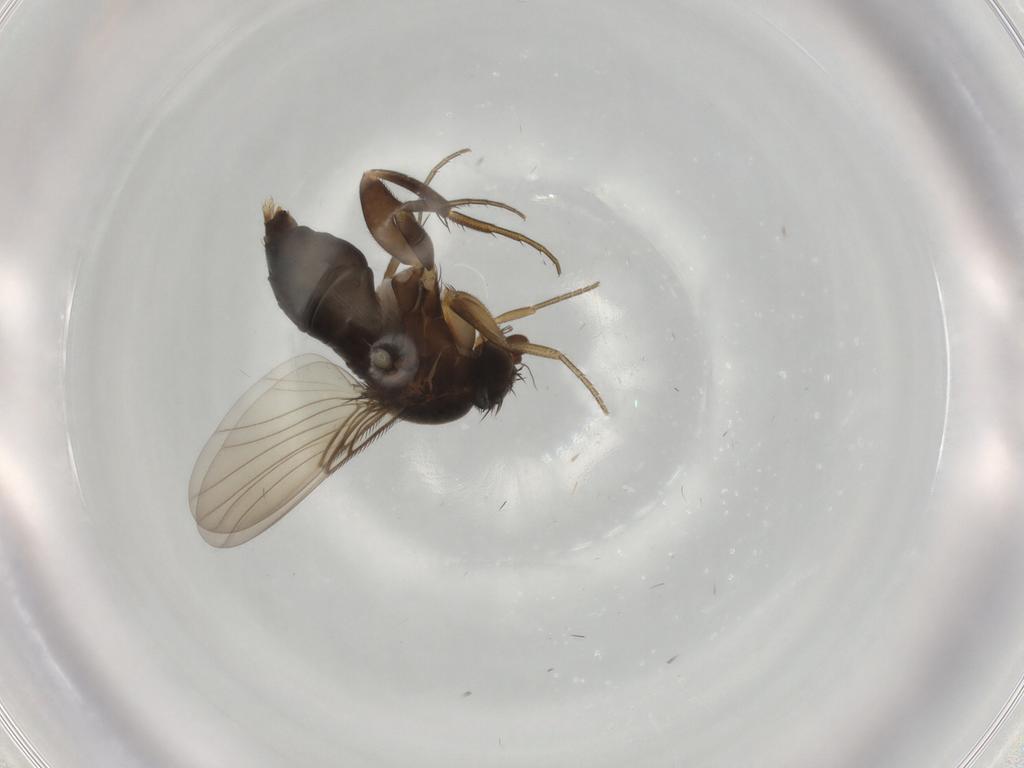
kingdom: Animalia
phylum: Arthropoda
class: Insecta
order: Diptera
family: Phoridae
